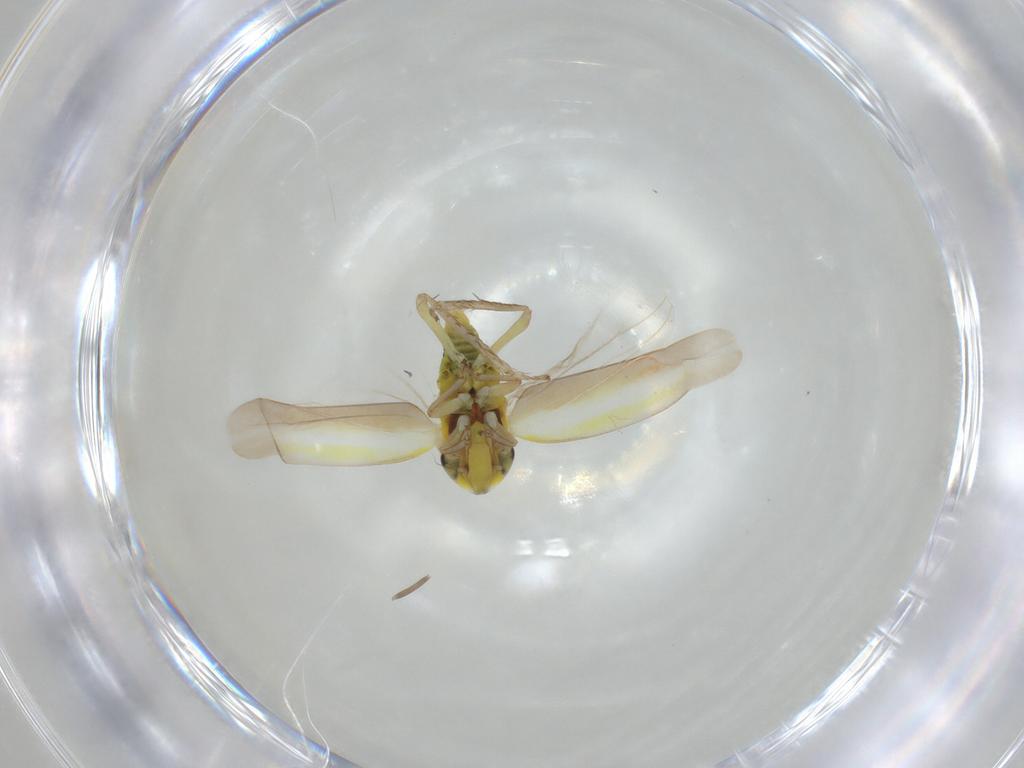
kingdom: Animalia
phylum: Arthropoda
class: Insecta
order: Hemiptera
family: Cicadellidae
